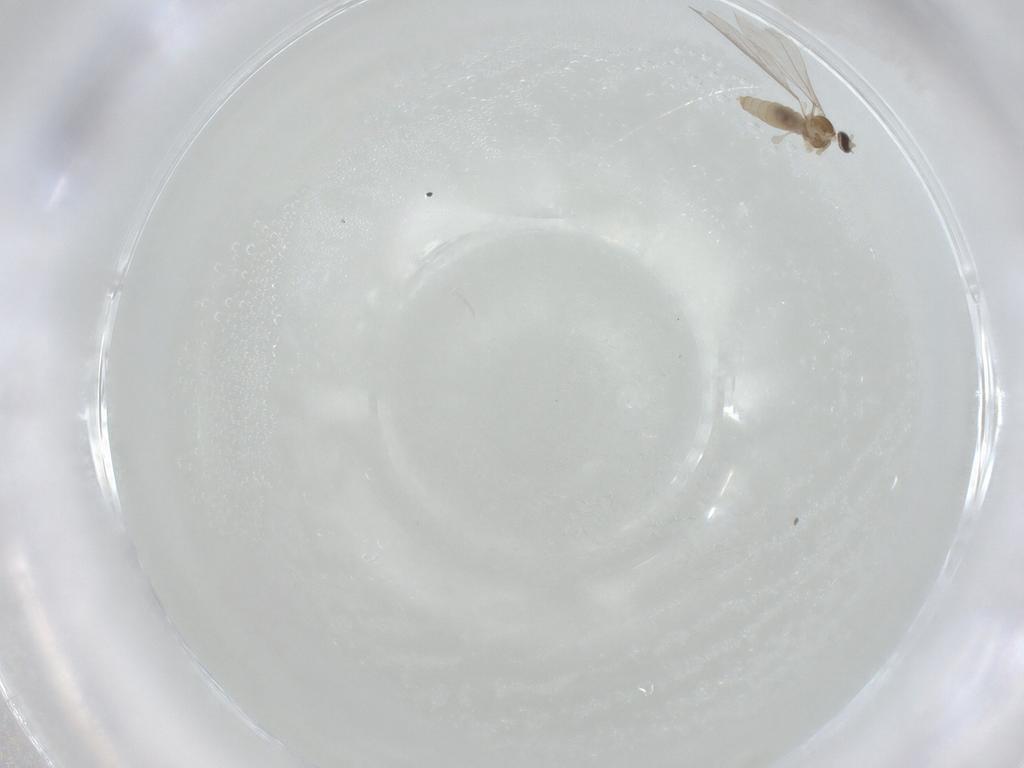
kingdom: Animalia
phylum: Arthropoda
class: Insecta
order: Diptera
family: Cecidomyiidae
